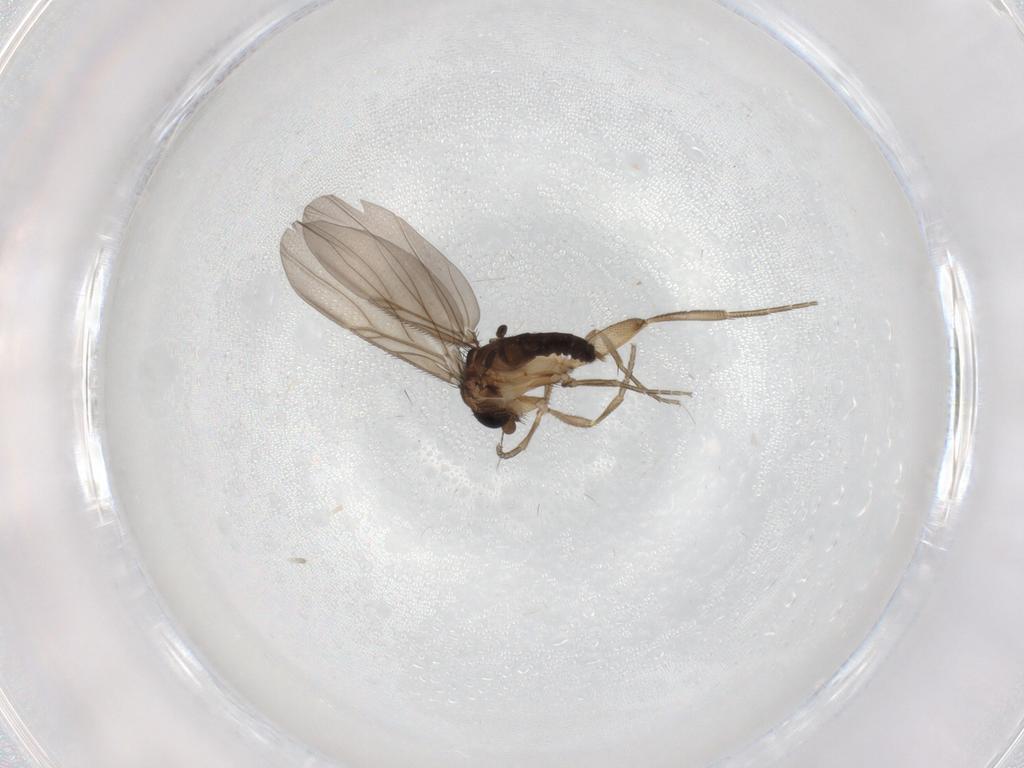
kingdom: Animalia
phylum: Arthropoda
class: Insecta
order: Diptera
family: Phoridae
